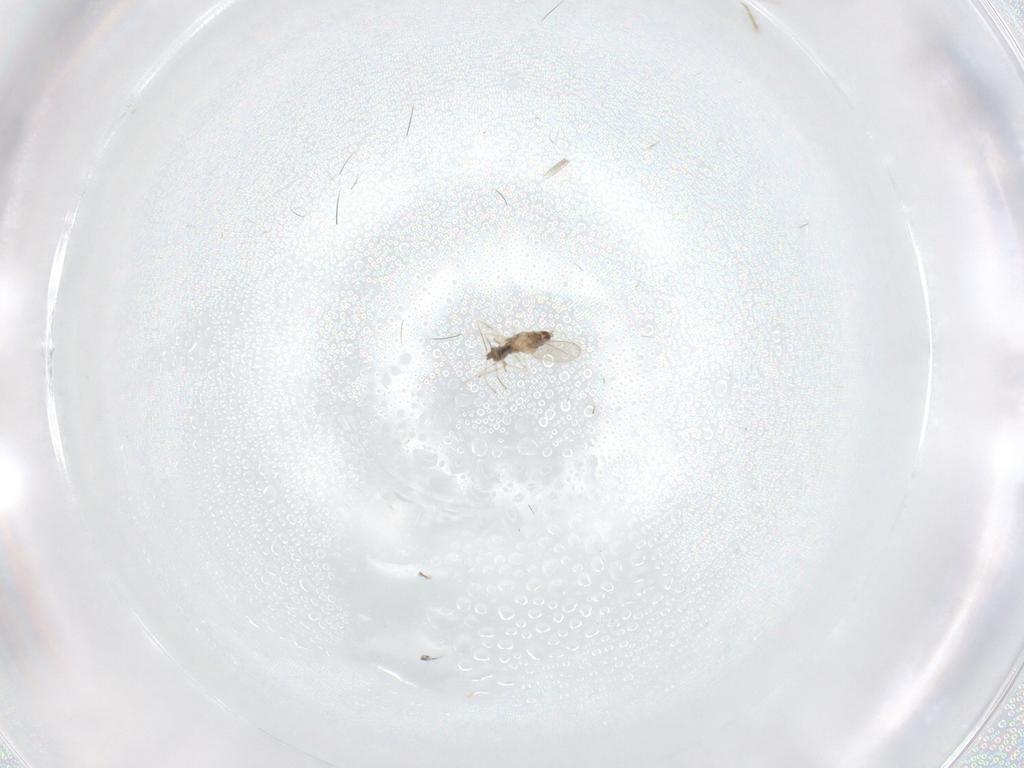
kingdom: Animalia
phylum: Arthropoda
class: Insecta
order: Diptera
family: Cecidomyiidae
